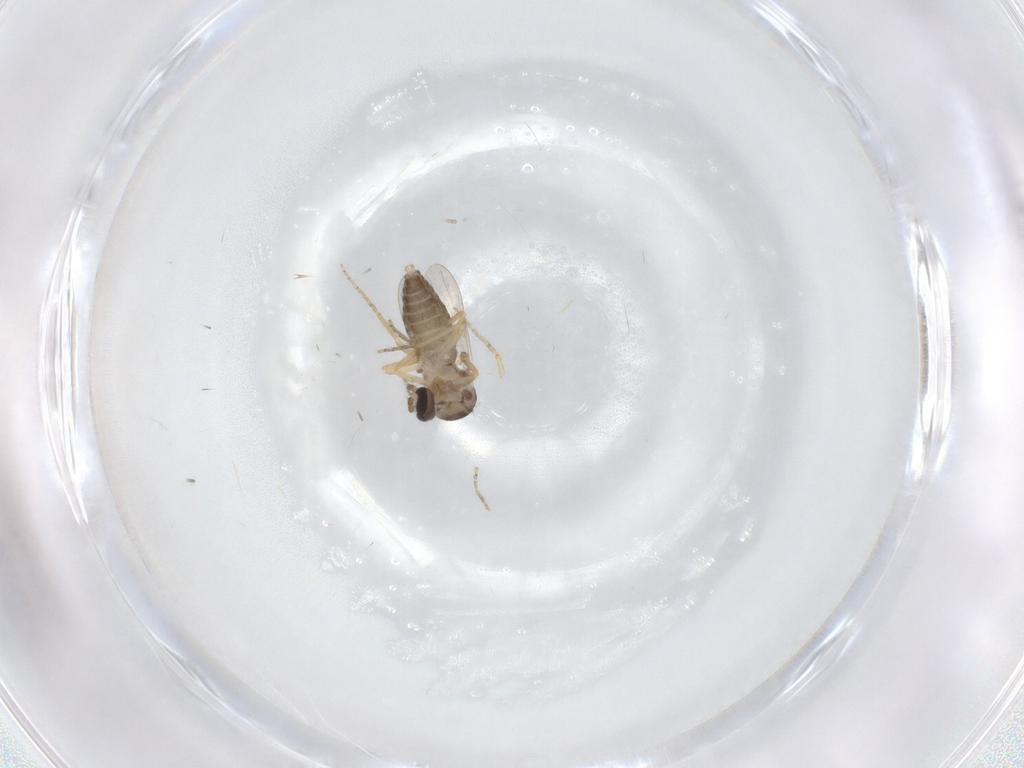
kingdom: Animalia
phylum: Arthropoda
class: Insecta
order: Diptera
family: Ceratopogonidae
